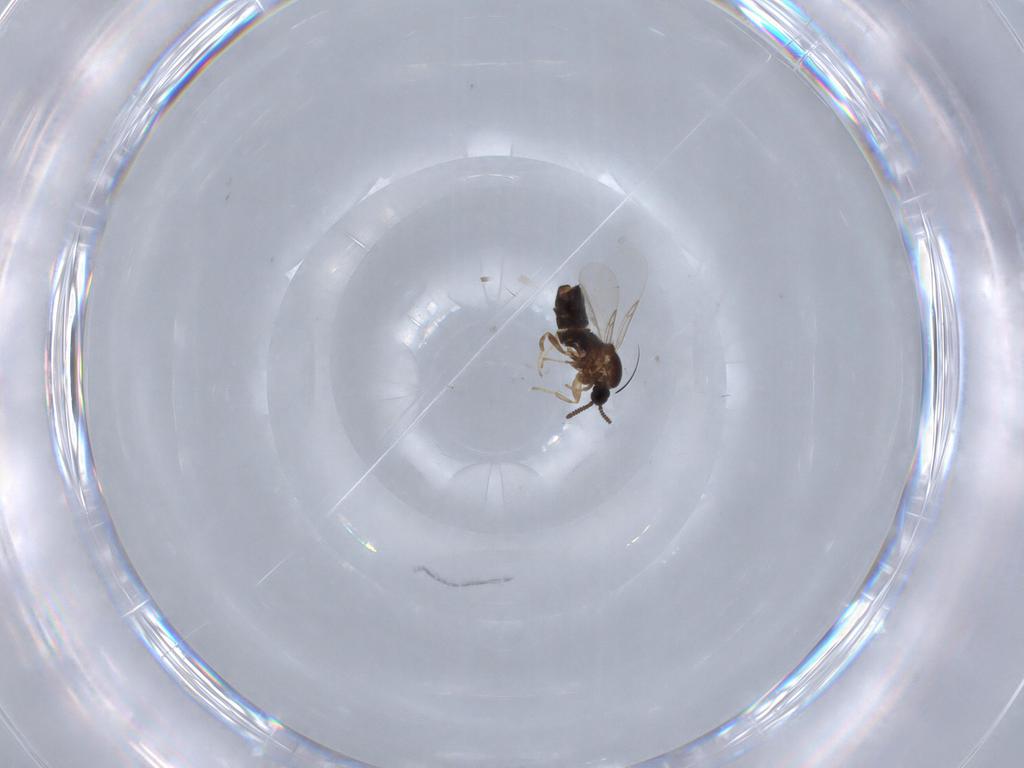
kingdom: Animalia
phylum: Arthropoda
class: Insecta
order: Diptera
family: Scatopsidae
